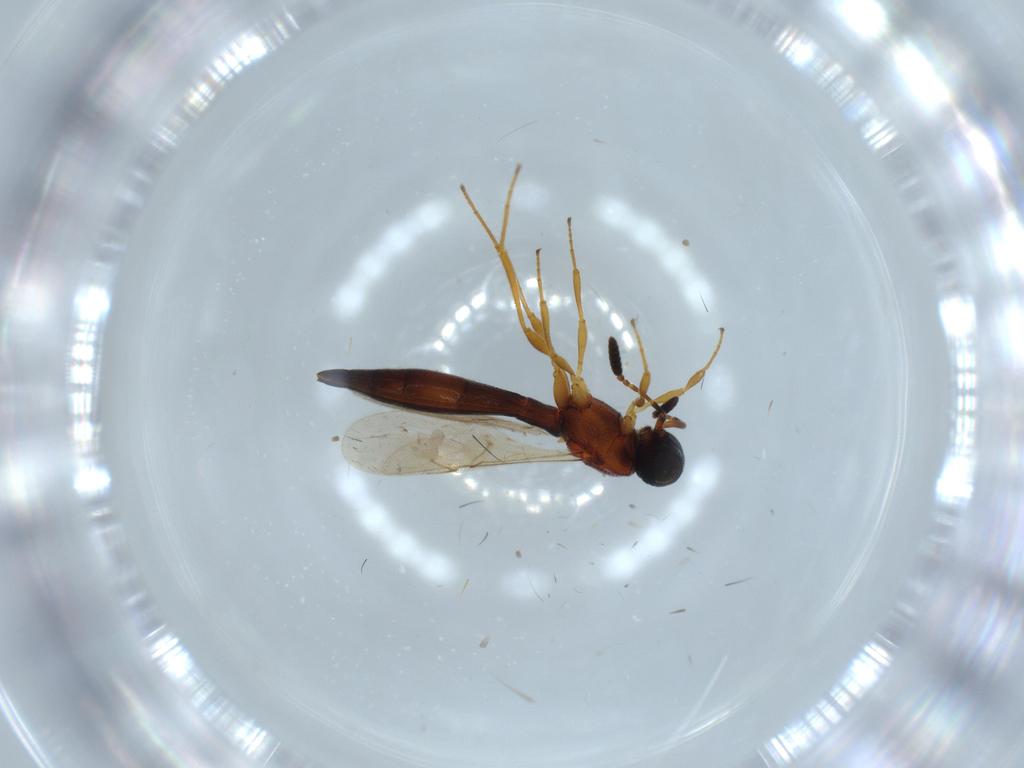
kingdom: Animalia
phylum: Arthropoda
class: Insecta
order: Hymenoptera
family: Scelionidae
